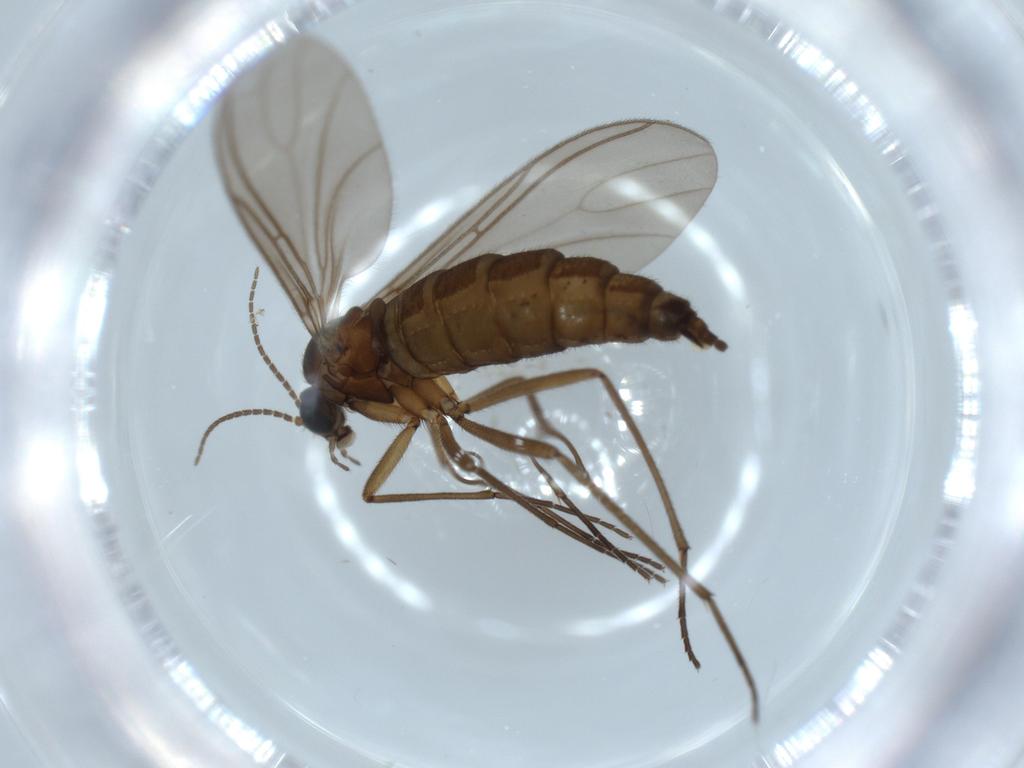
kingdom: Animalia
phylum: Arthropoda
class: Insecta
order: Diptera
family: Sciaridae
